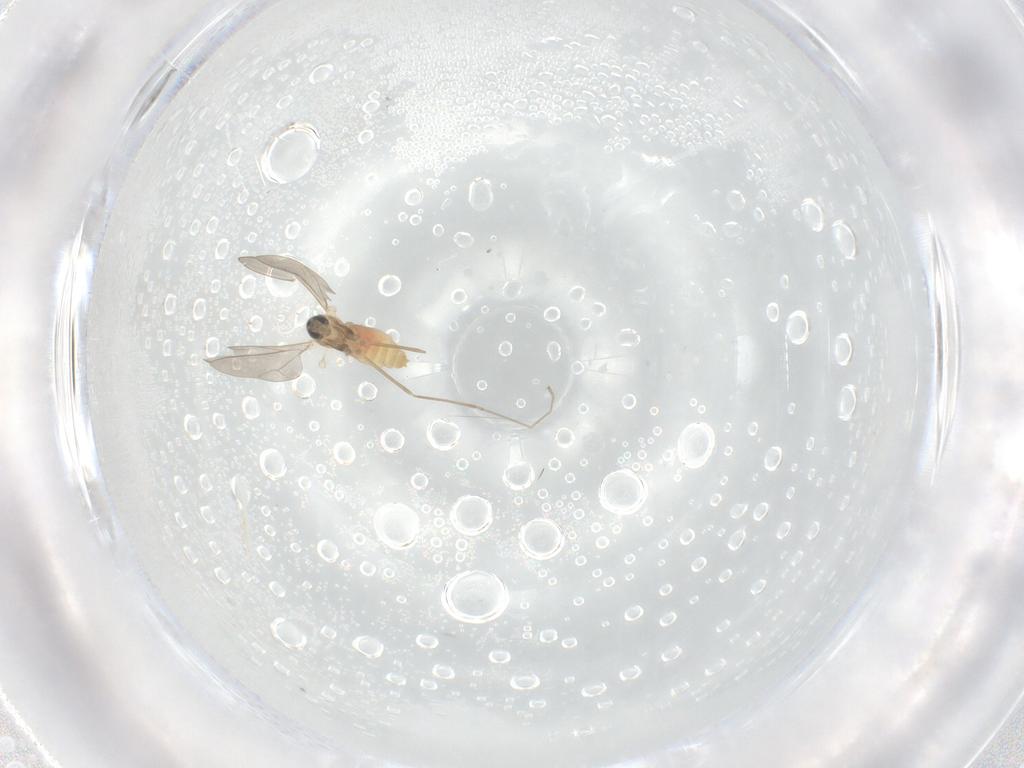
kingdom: Animalia
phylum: Arthropoda
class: Insecta
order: Diptera
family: Cecidomyiidae
